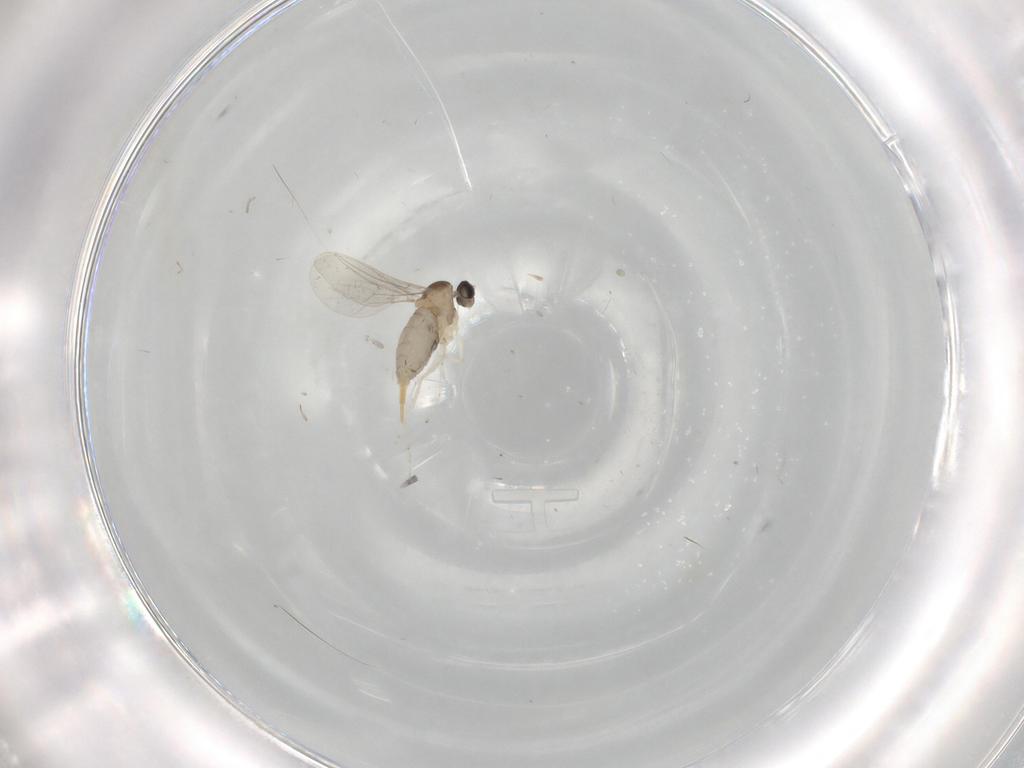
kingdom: Animalia
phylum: Arthropoda
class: Insecta
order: Diptera
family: Cecidomyiidae
